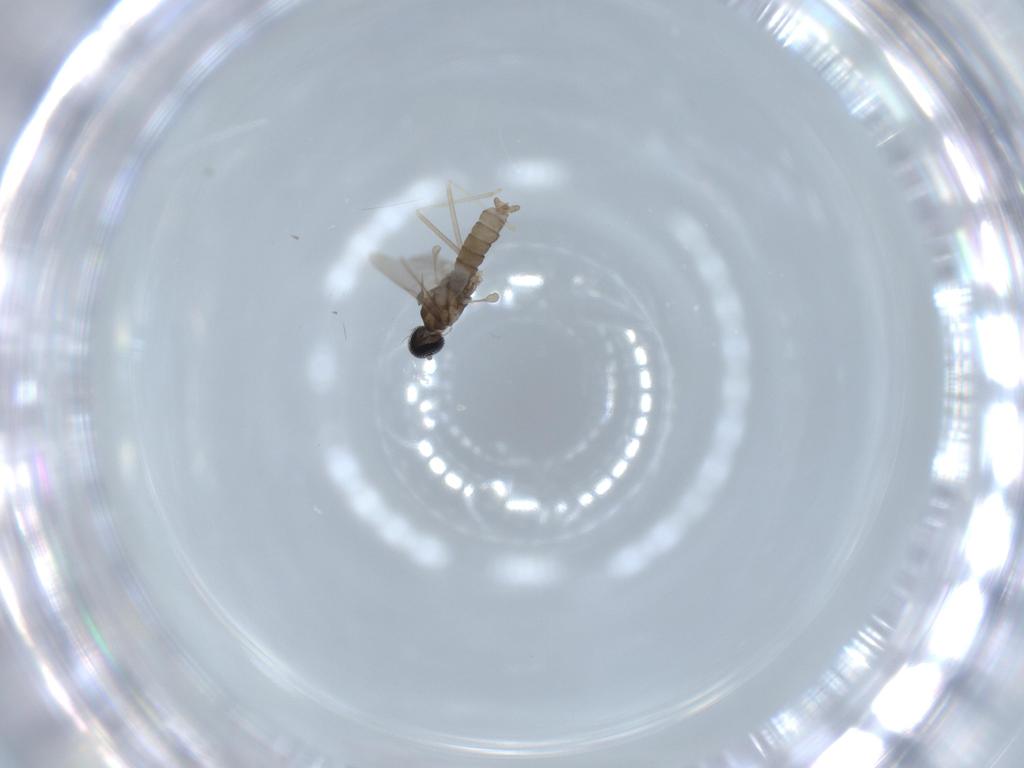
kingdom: Animalia
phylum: Arthropoda
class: Insecta
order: Diptera
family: Cecidomyiidae
